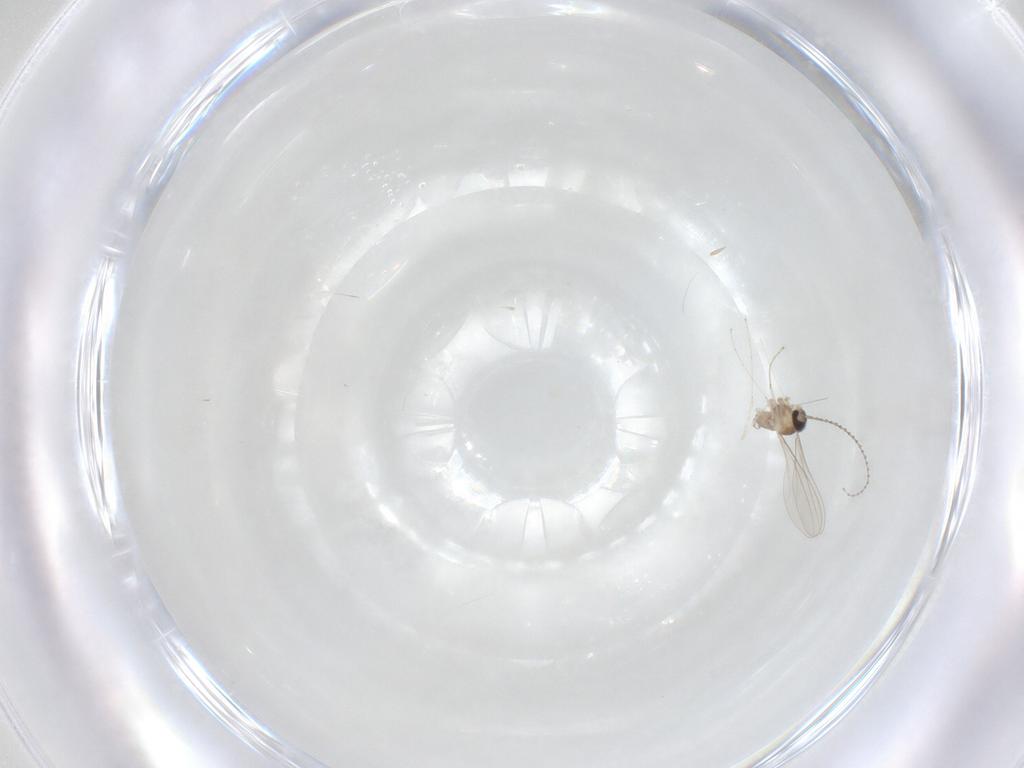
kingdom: Animalia
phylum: Arthropoda
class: Insecta
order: Diptera
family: Cecidomyiidae
